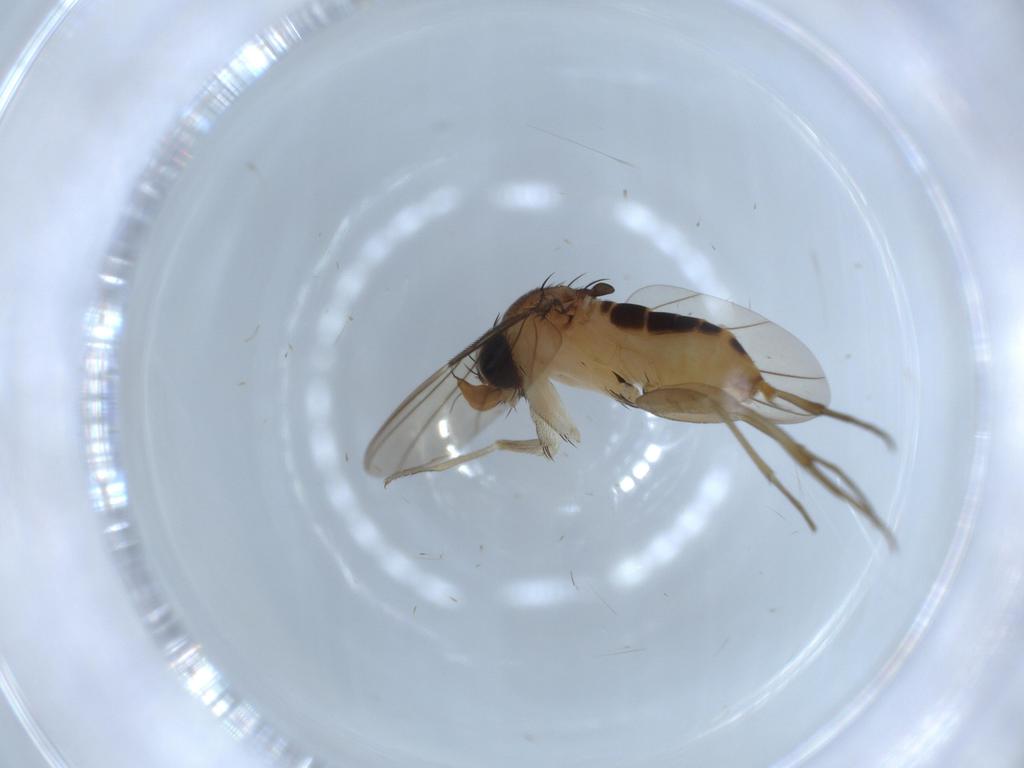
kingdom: Animalia
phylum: Arthropoda
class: Insecta
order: Diptera
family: Phoridae
